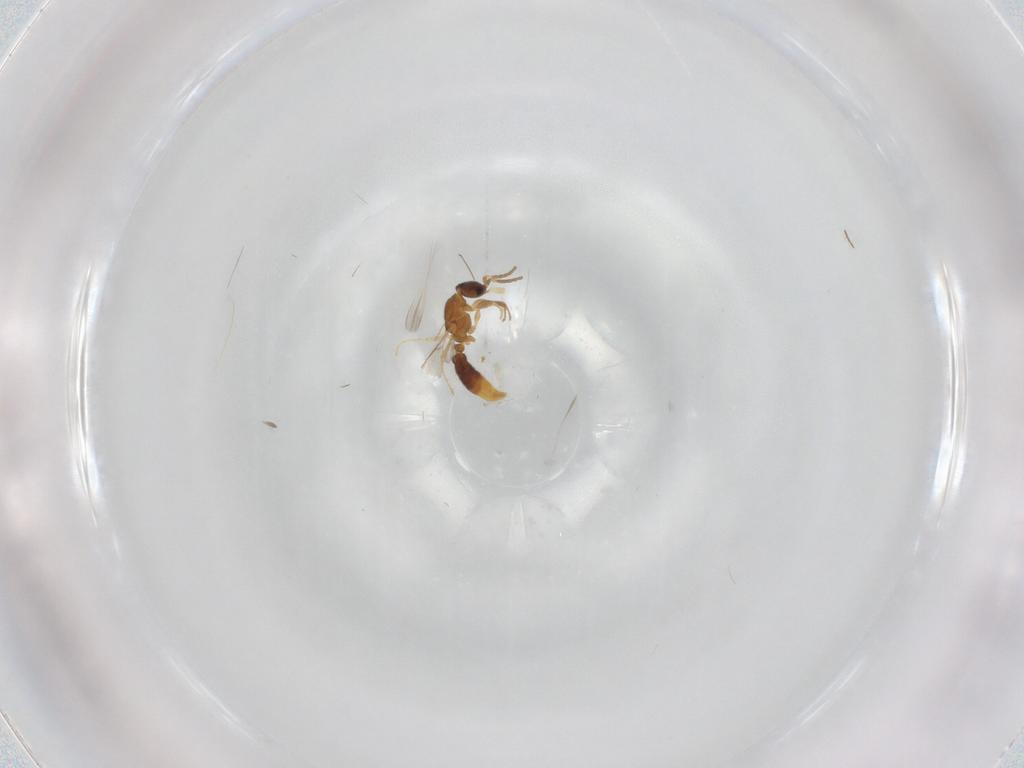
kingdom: Animalia
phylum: Arthropoda
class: Insecta
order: Hymenoptera
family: Formicidae
